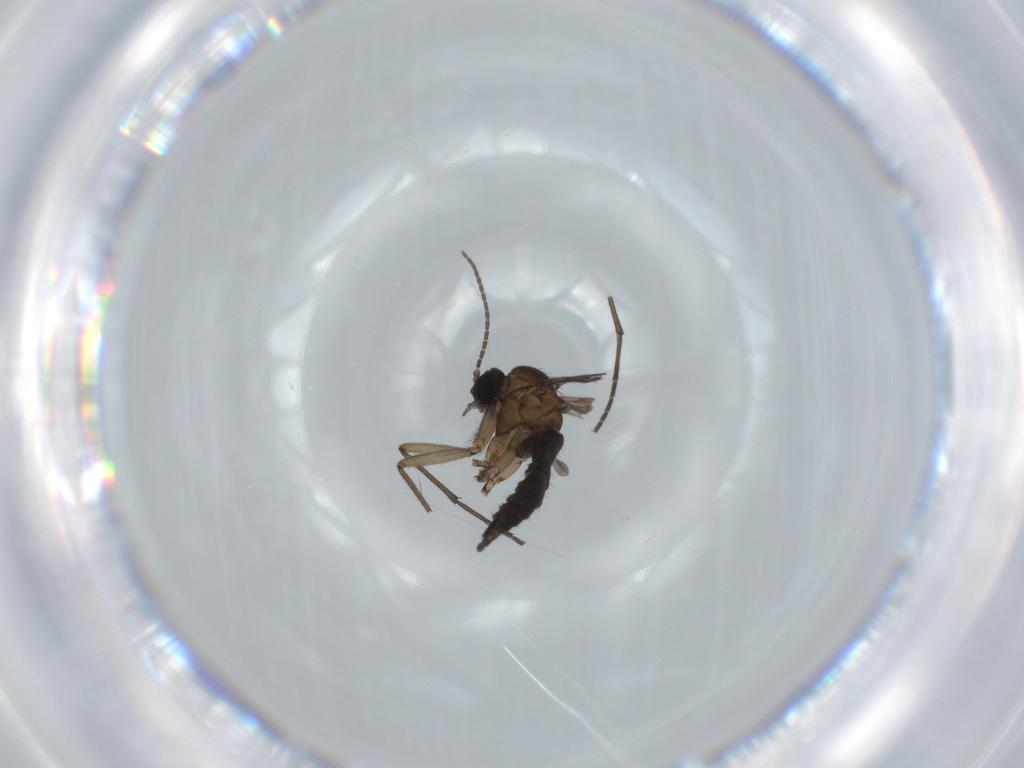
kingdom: Animalia
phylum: Arthropoda
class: Insecta
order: Diptera
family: Sciaridae
